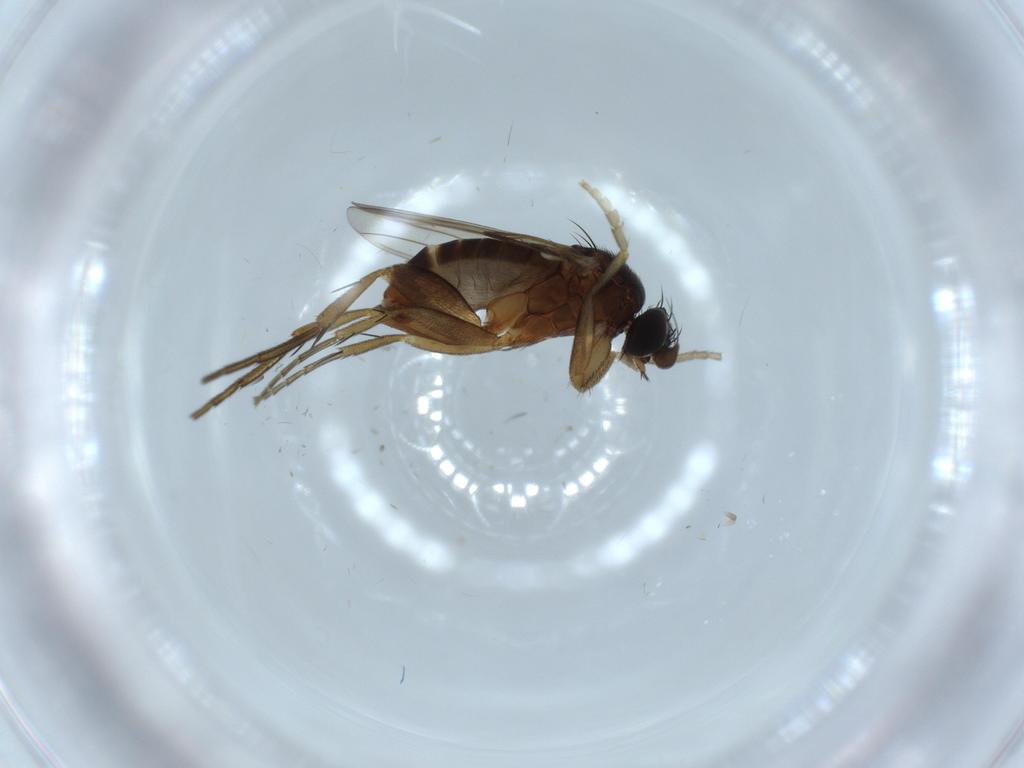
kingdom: Animalia
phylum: Arthropoda
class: Insecta
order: Diptera
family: Phoridae
